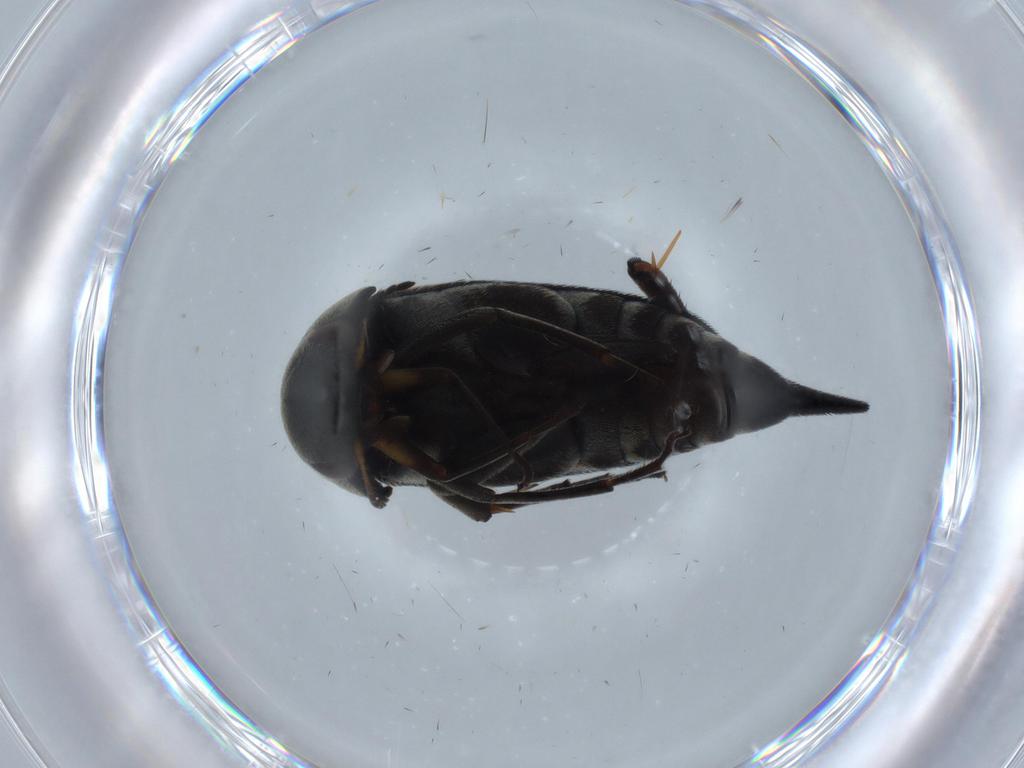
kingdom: Animalia
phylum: Arthropoda
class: Insecta
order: Coleoptera
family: Mordellidae
